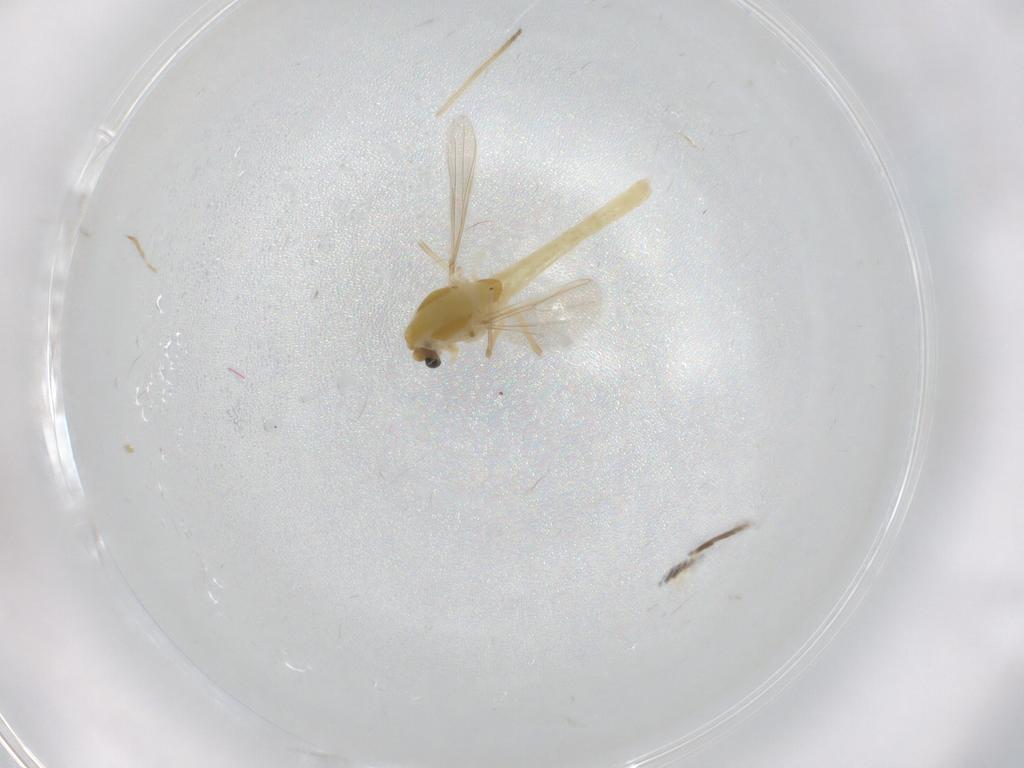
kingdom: Animalia
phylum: Arthropoda
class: Insecta
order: Diptera
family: Chironomidae
